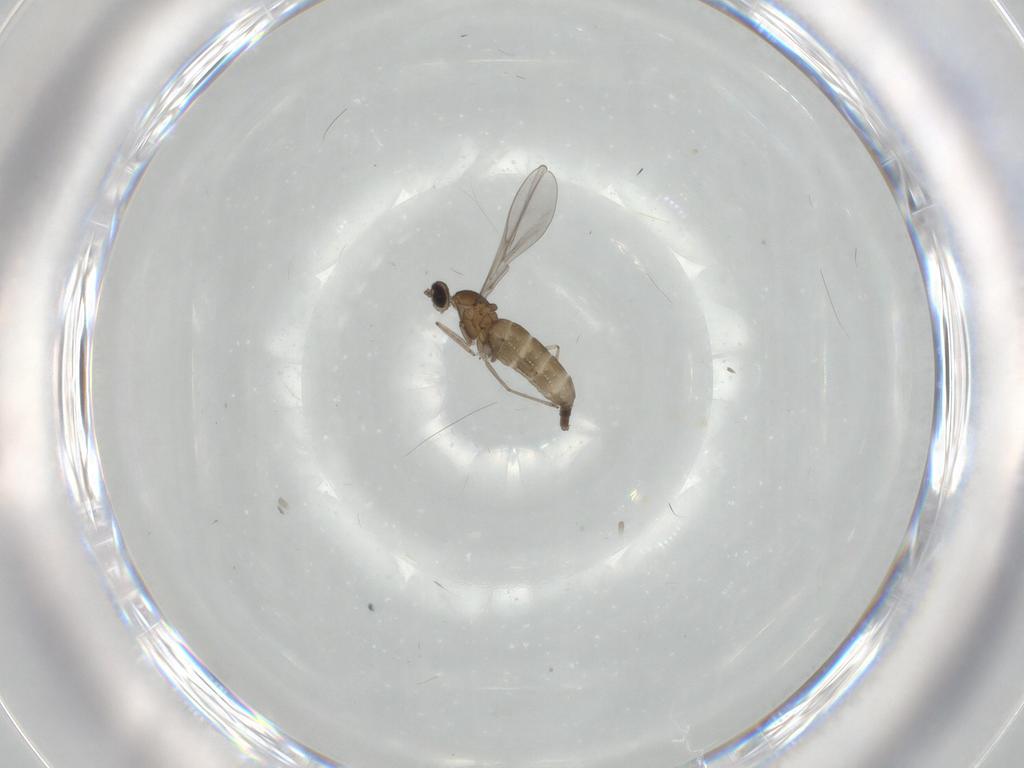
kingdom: Animalia
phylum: Arthropoda
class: Insecta
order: Diptera
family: Cecidomyiidae
